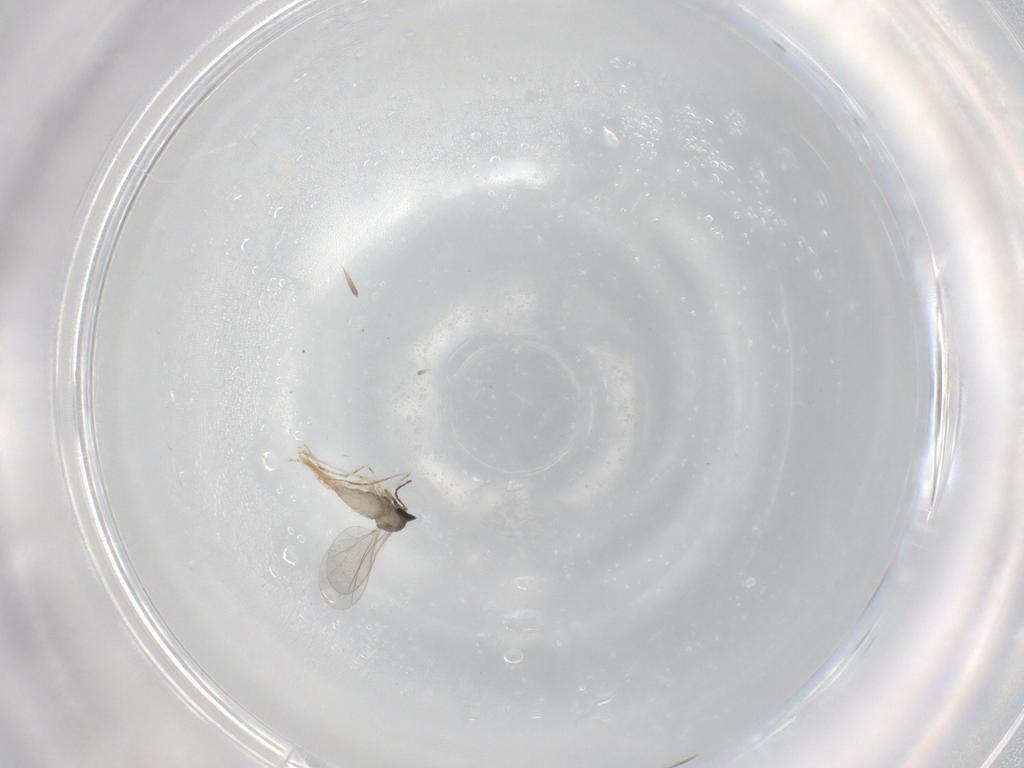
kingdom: Animalia
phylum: Arthropoda
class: Insecta
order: Diptera
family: Cecidomyiidae
